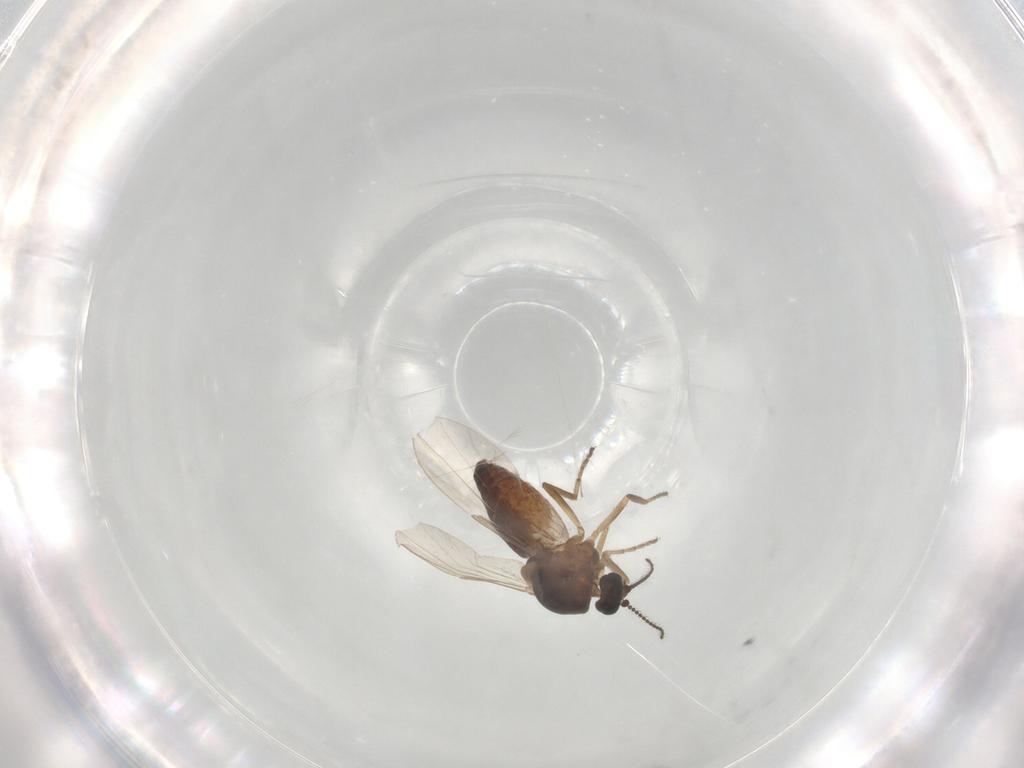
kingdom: Animalia
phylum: Arthropoda
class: Insecta
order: Diptera
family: Ceratopogonidae
